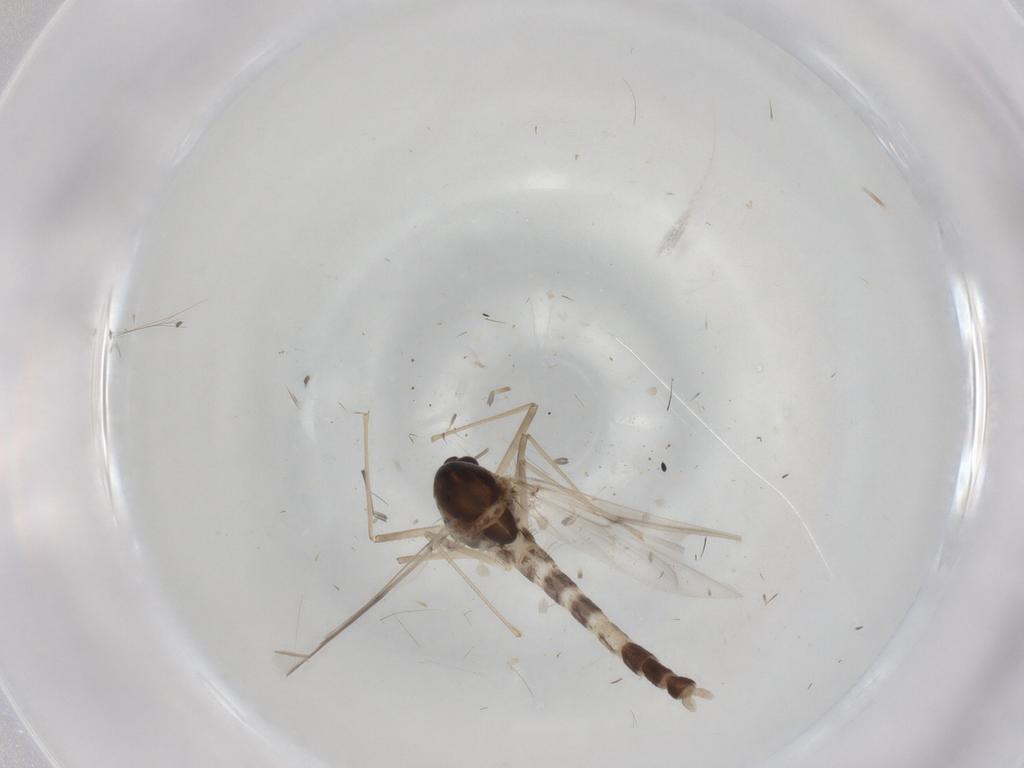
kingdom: Animalia
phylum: Arthropoda
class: Insecta
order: Diptera
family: Chironomidae
